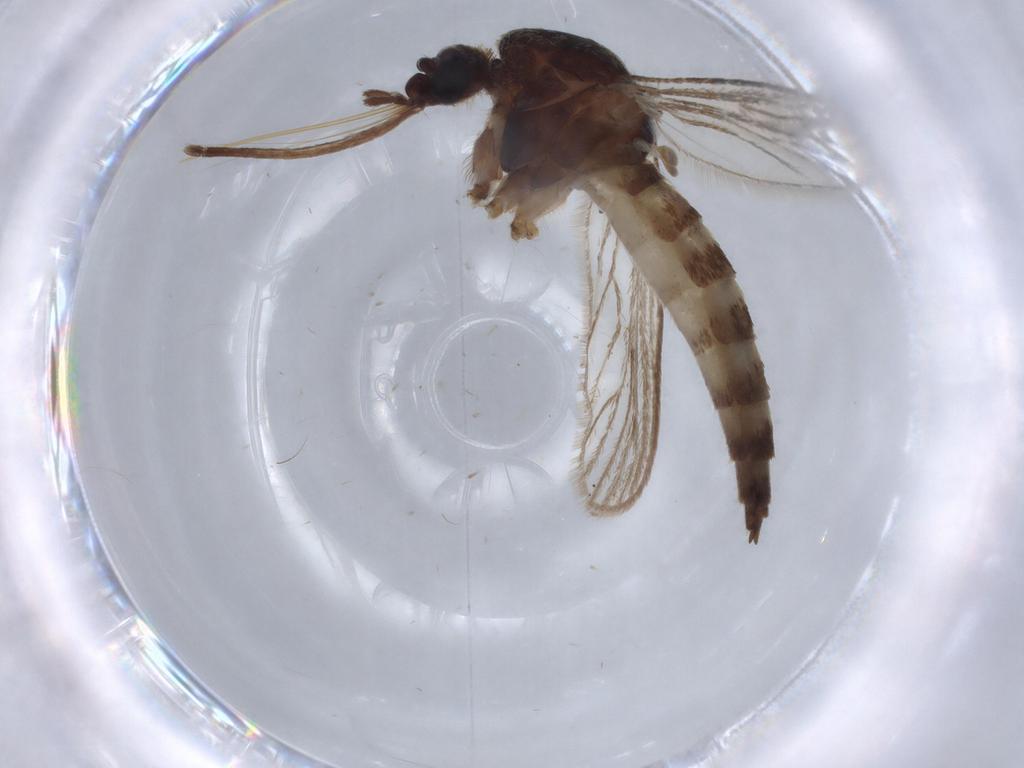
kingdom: Animalia
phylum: Arthropoda
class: Insecta
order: Diptera
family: Culicidae
